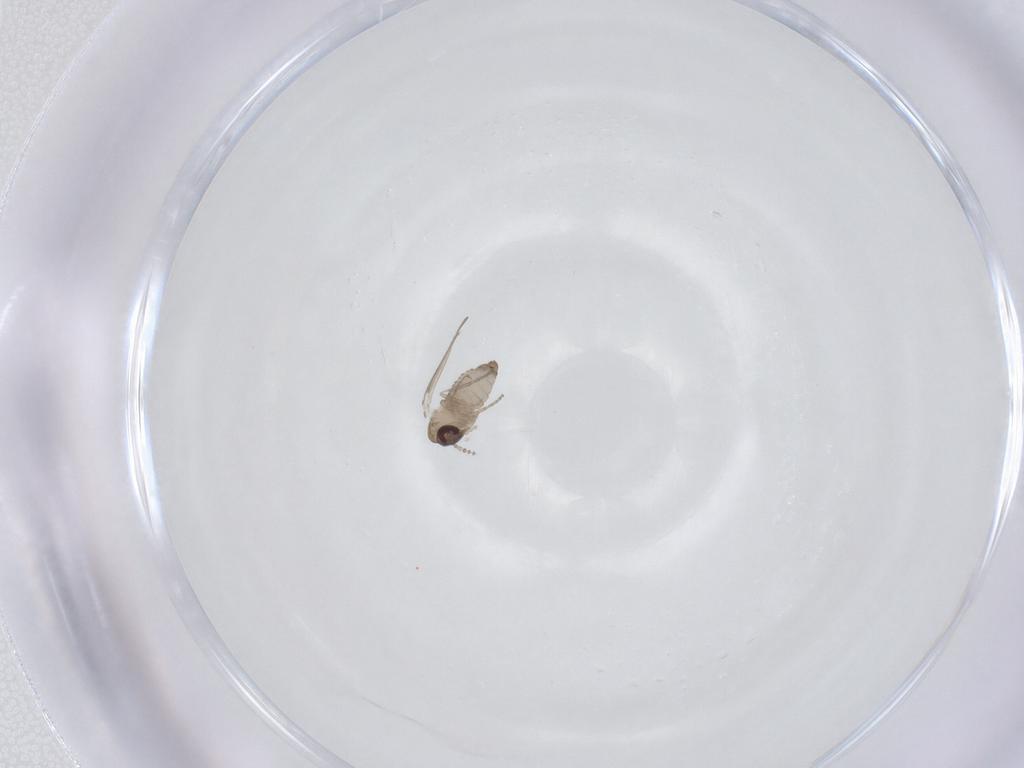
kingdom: Animalia
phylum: Arthropoda
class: Insecta
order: Diptera
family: Psychodidae
